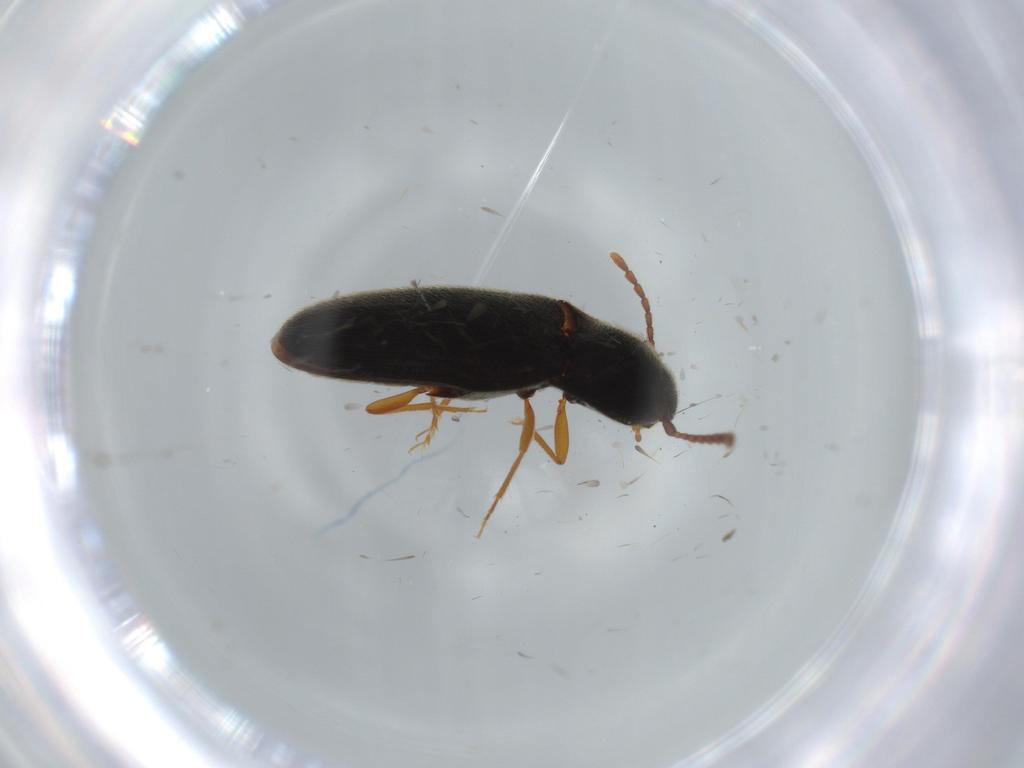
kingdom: Animalia
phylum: Arthropoda
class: Insecta
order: Coleoptera
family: Elateridae
